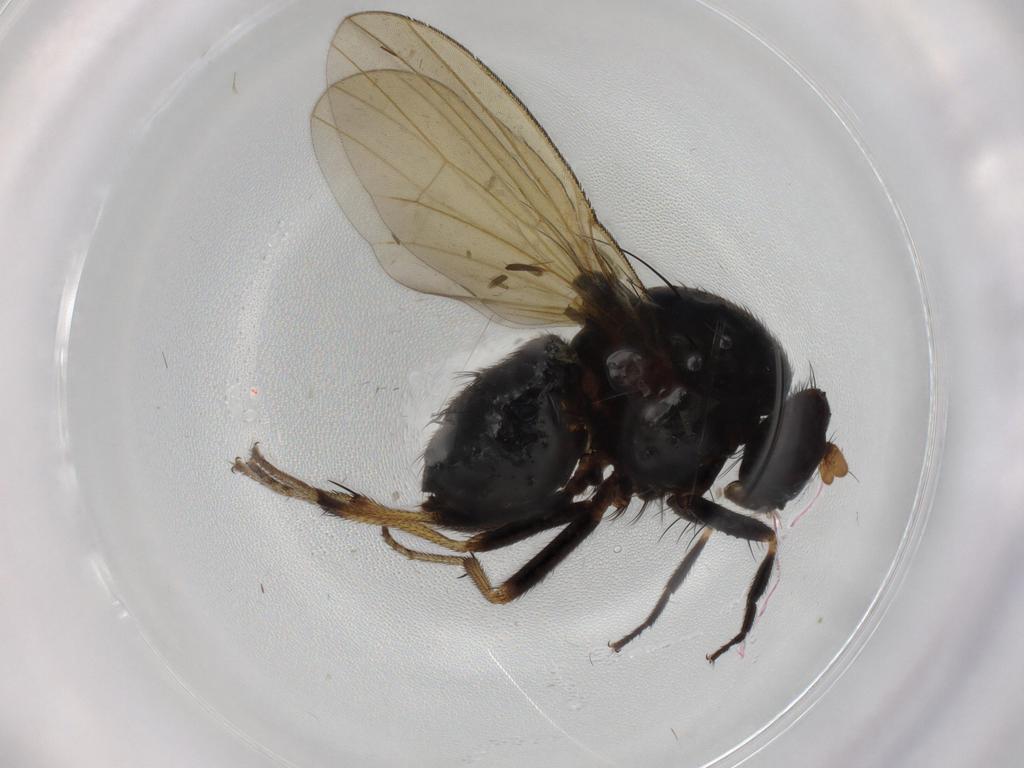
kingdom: Animalia
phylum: Arthropoda
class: Insecta
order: Diptera
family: Cecidomyiidae
